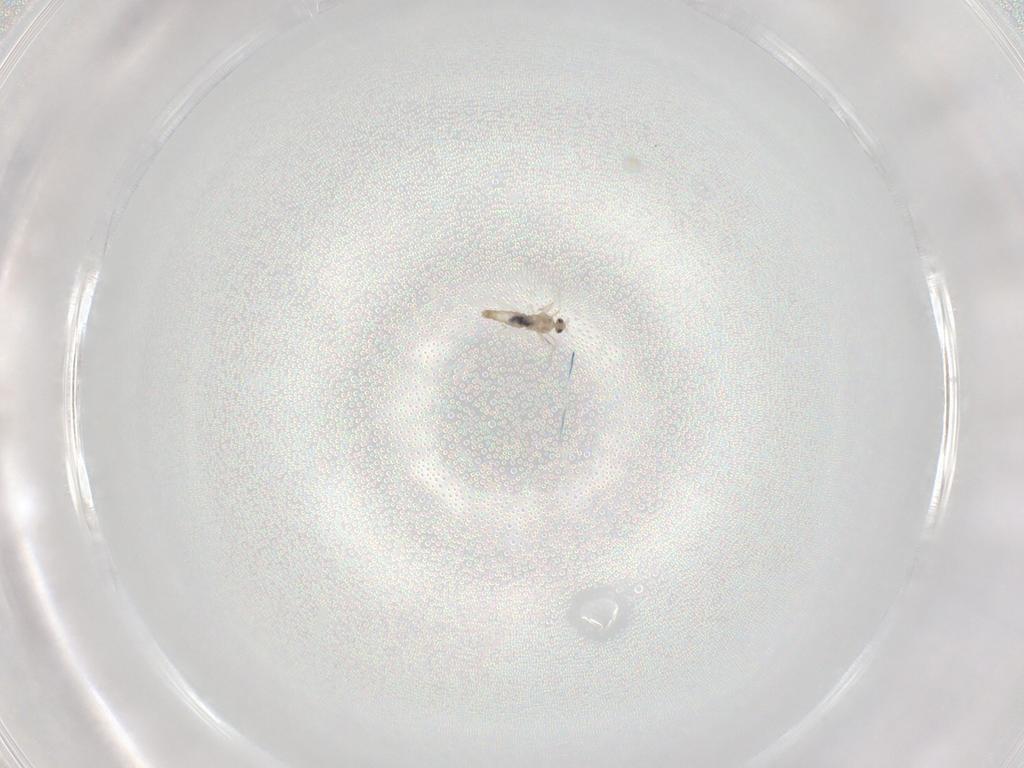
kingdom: Animalia
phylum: Arthropoda
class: Insecta
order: Diptera
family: Cecidomyiidae
